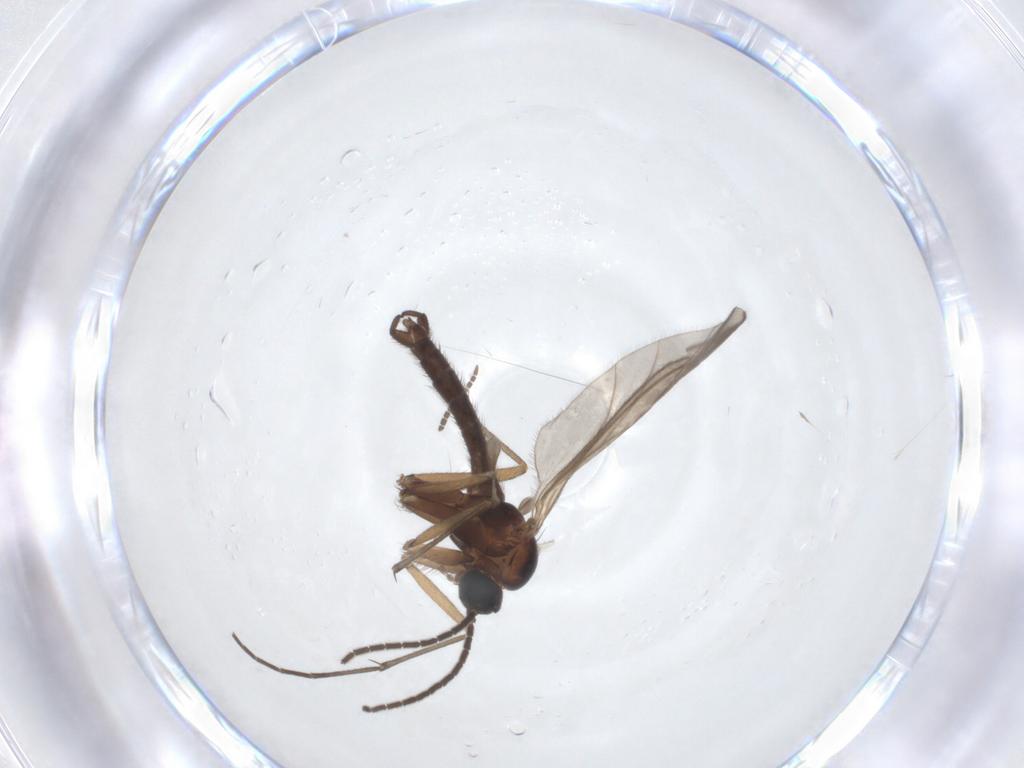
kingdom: Animalia
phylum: Arthropoda
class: Insecta
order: Diptera
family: Sciaridae
